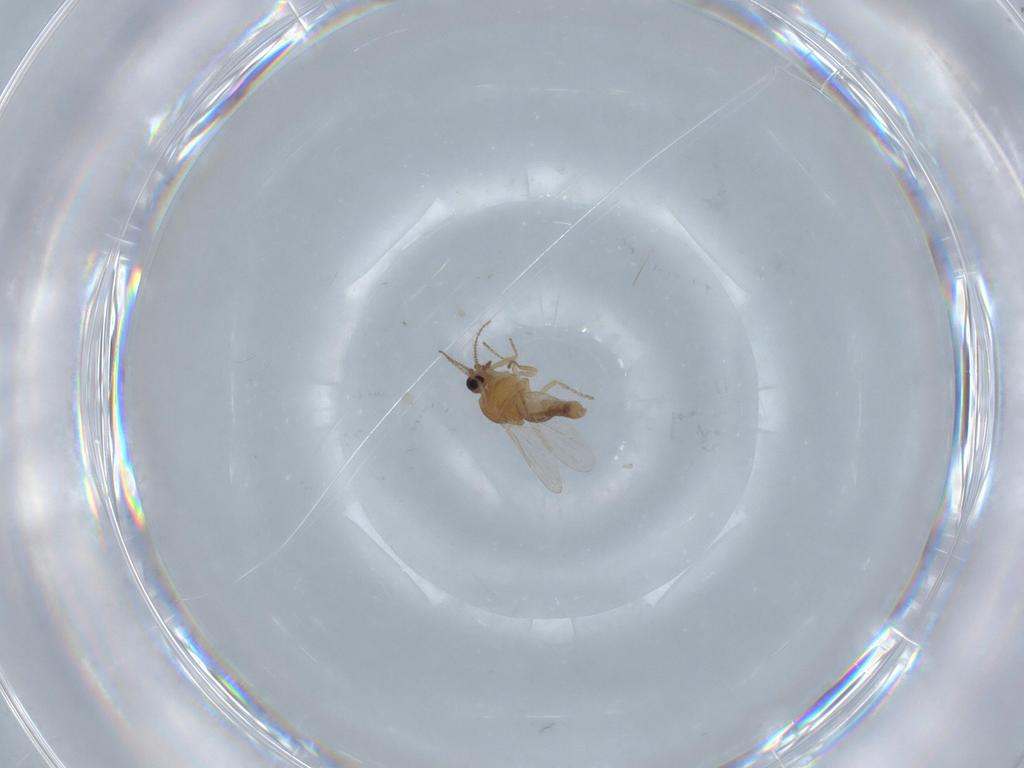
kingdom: Animalia
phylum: Arthropoda
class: Insecta
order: Diptera
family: Ceratopogonidae
